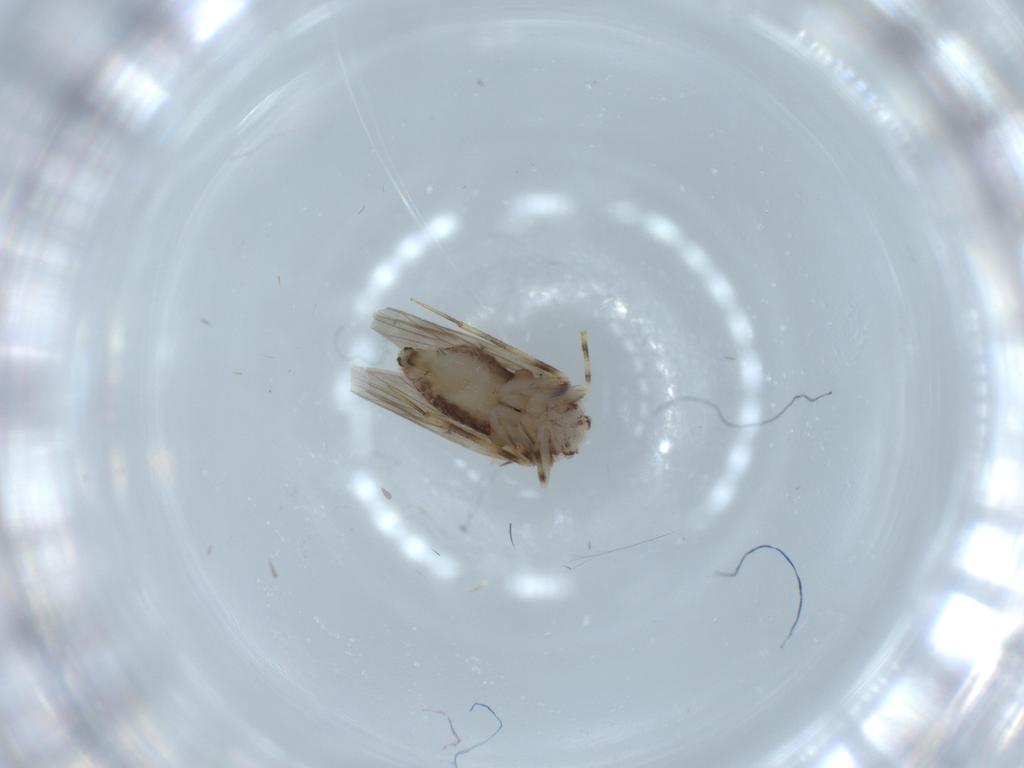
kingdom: Animalia
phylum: Arthropoda
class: Insecta
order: Psocodea
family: Lepidopsocidae
